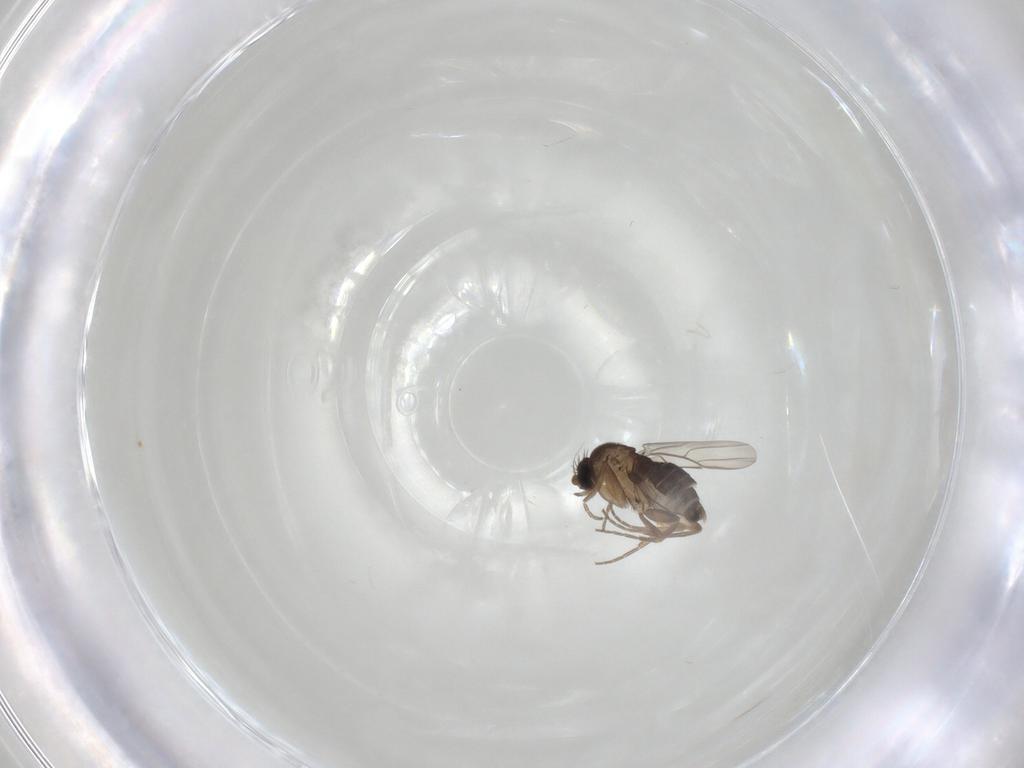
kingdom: Animalia
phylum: Arthropoda
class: Insecta
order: Diptera
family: Phoridae
